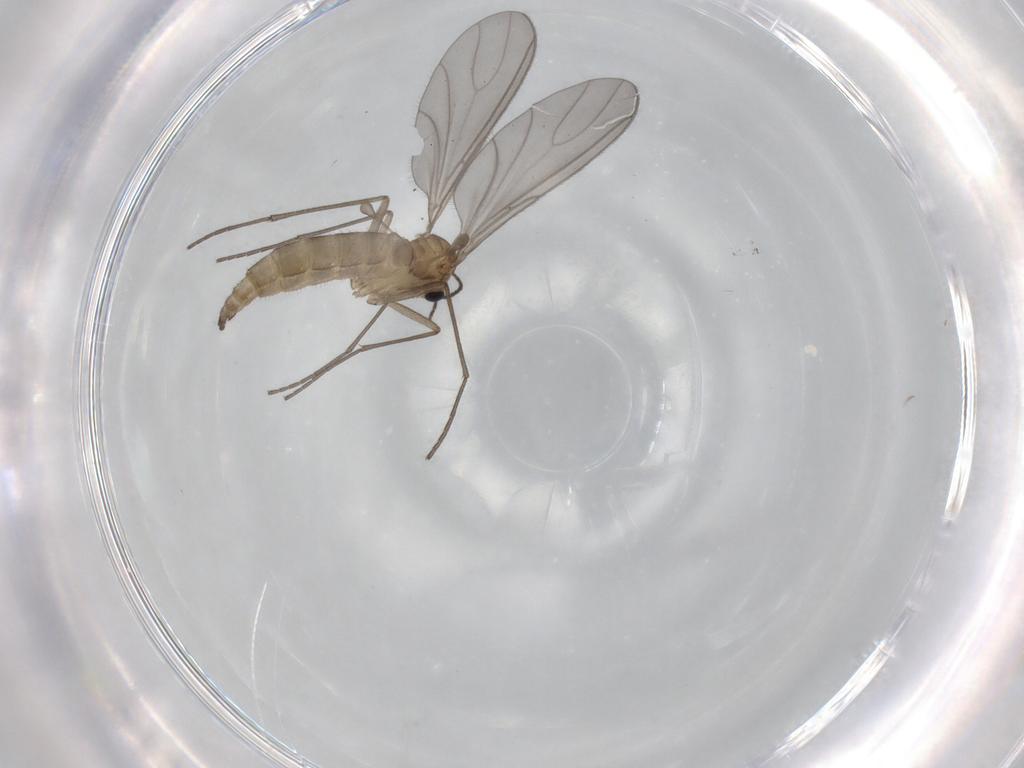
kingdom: Animalia
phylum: Arthropoda
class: Insecta
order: Diptera
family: Sciaridae
